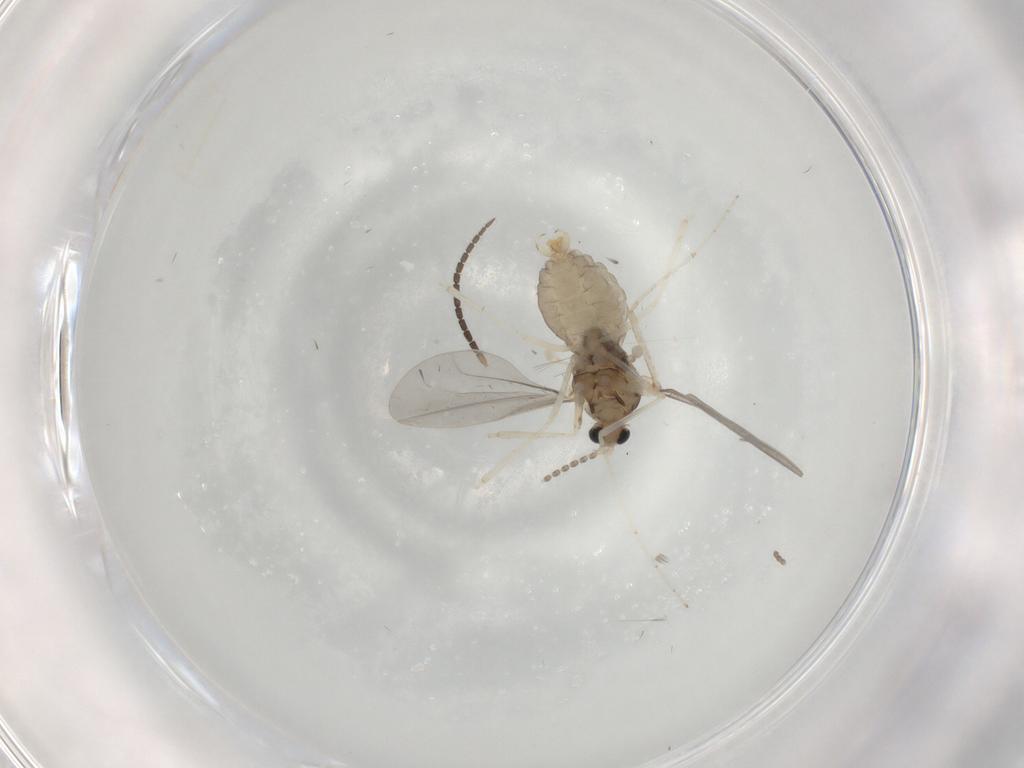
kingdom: Animalia
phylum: Arthropoda
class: Insecta
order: Diptera
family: Cecidomyiidae
